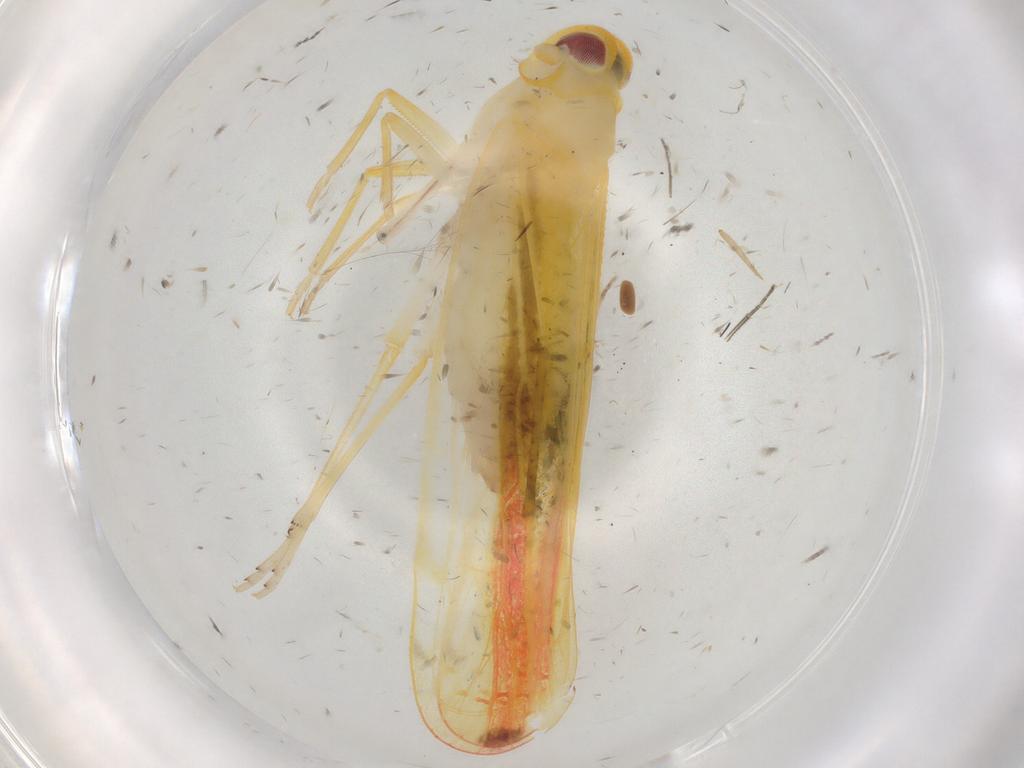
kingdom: Animalia
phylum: Arthropoda
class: Insecta
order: Hemiptera
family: Derbidae
